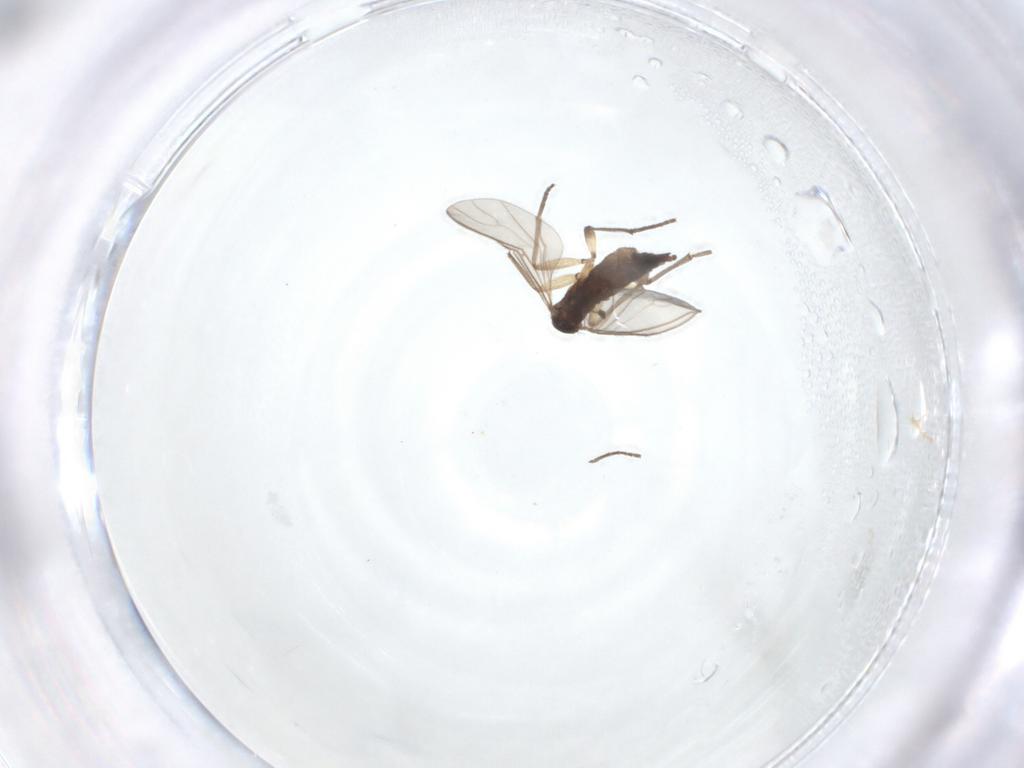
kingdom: Animalia
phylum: Arthropoda
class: Insecta
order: Diptera
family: Sciaridae
